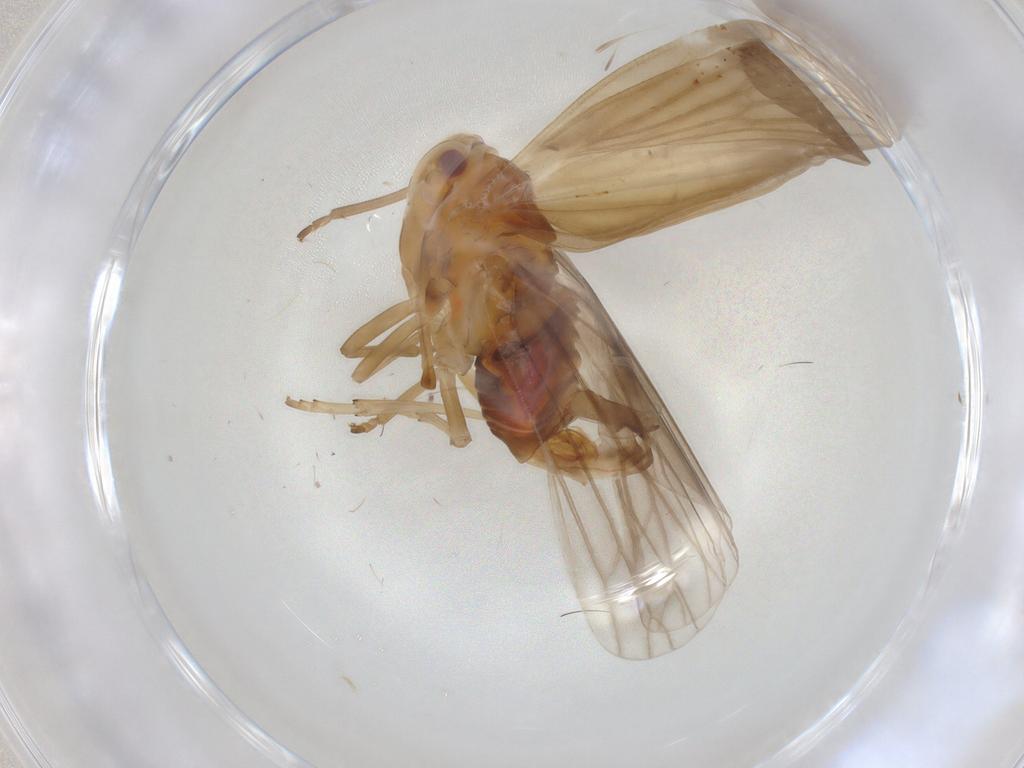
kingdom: Animalia
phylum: Arthropoda
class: Insecta
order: Hemiptera
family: Derbidae
